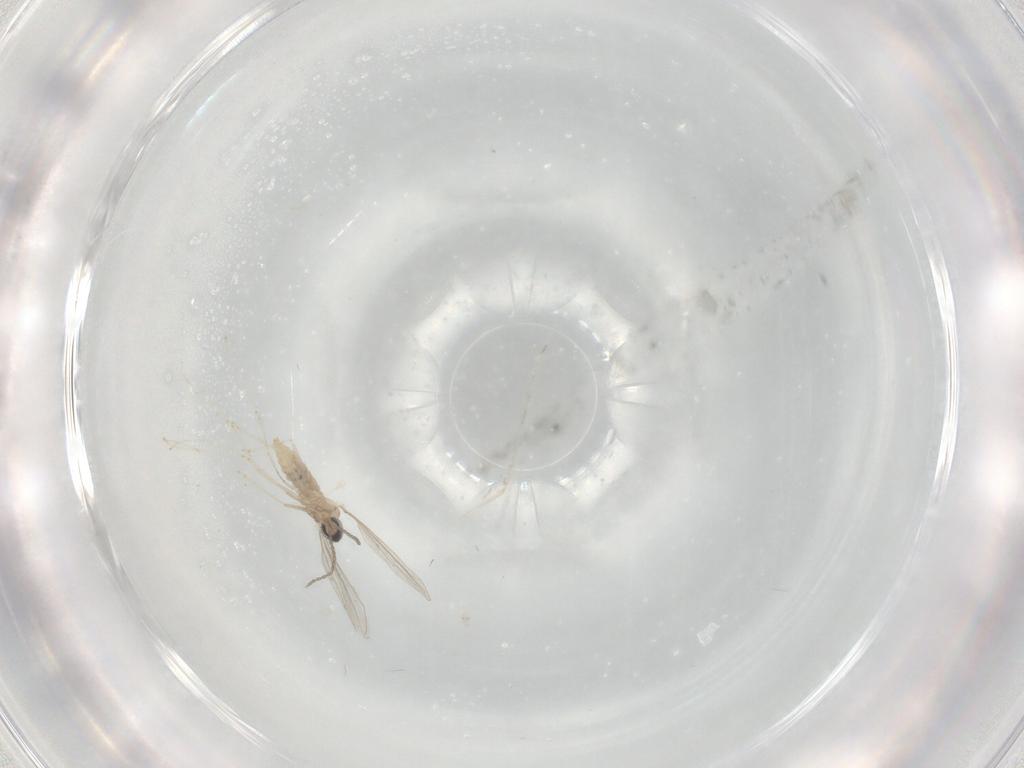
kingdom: Animalia
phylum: Arthropoda
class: Insecta
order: Diptera
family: Cecidomyiidae
